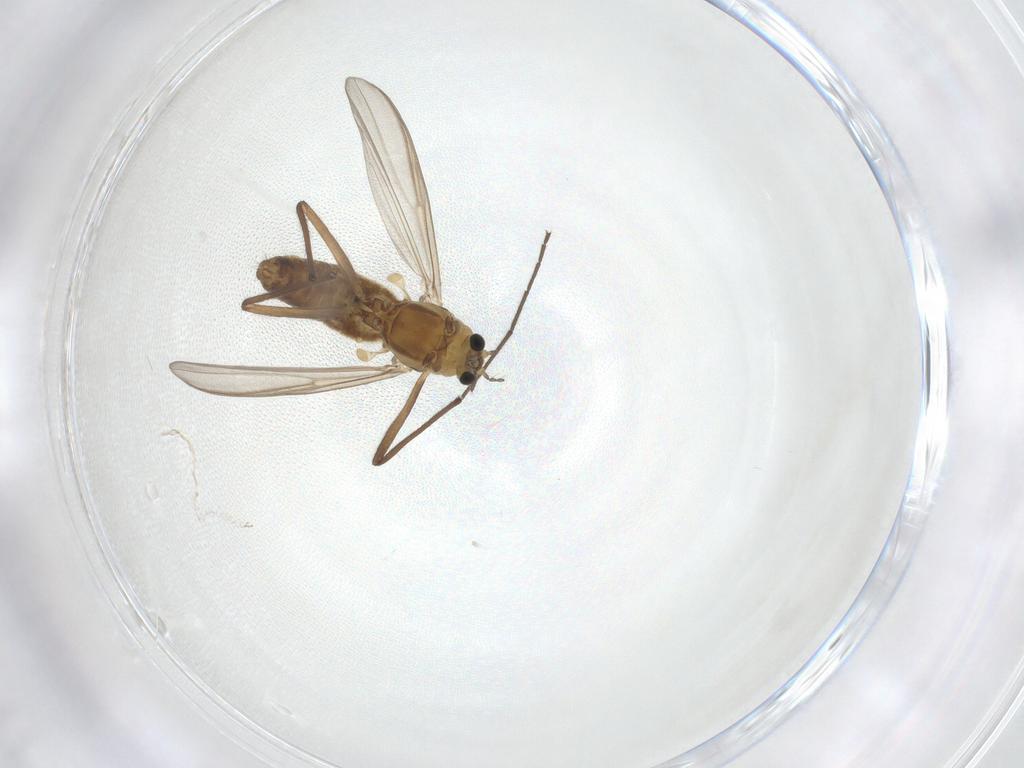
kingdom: Animalia
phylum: Arthropoda
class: Insecta
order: Diptera
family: Chironomidae
